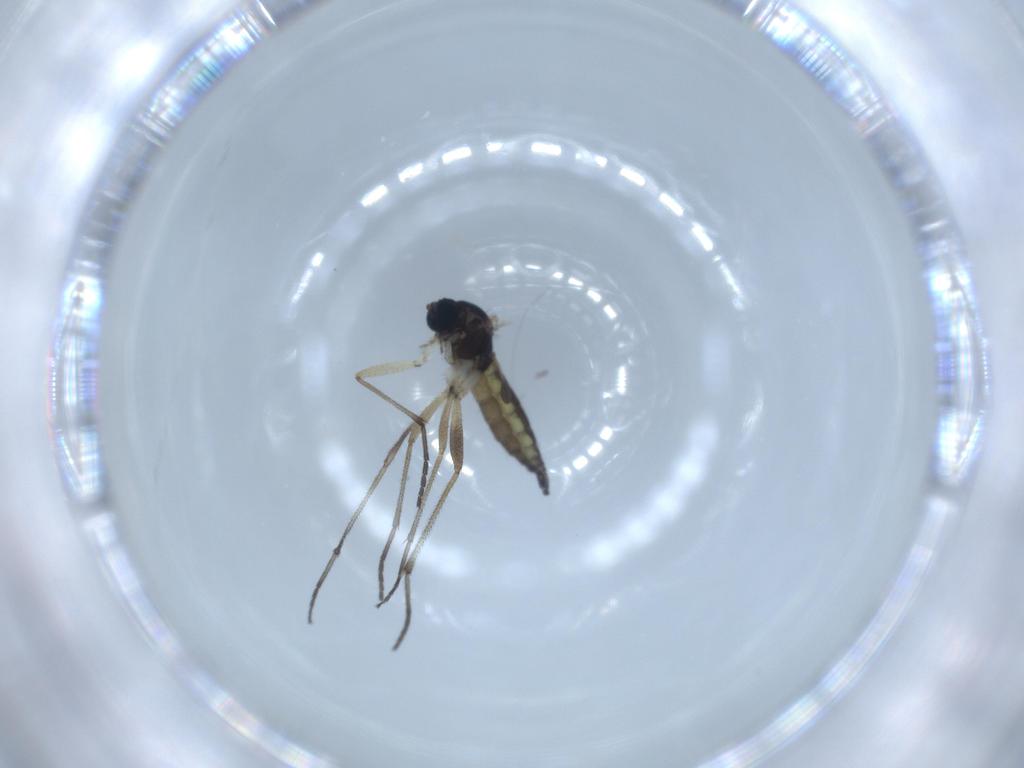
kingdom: Animalia
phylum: Arthropoda
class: Insecta
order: Diptera
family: Sciaridae
